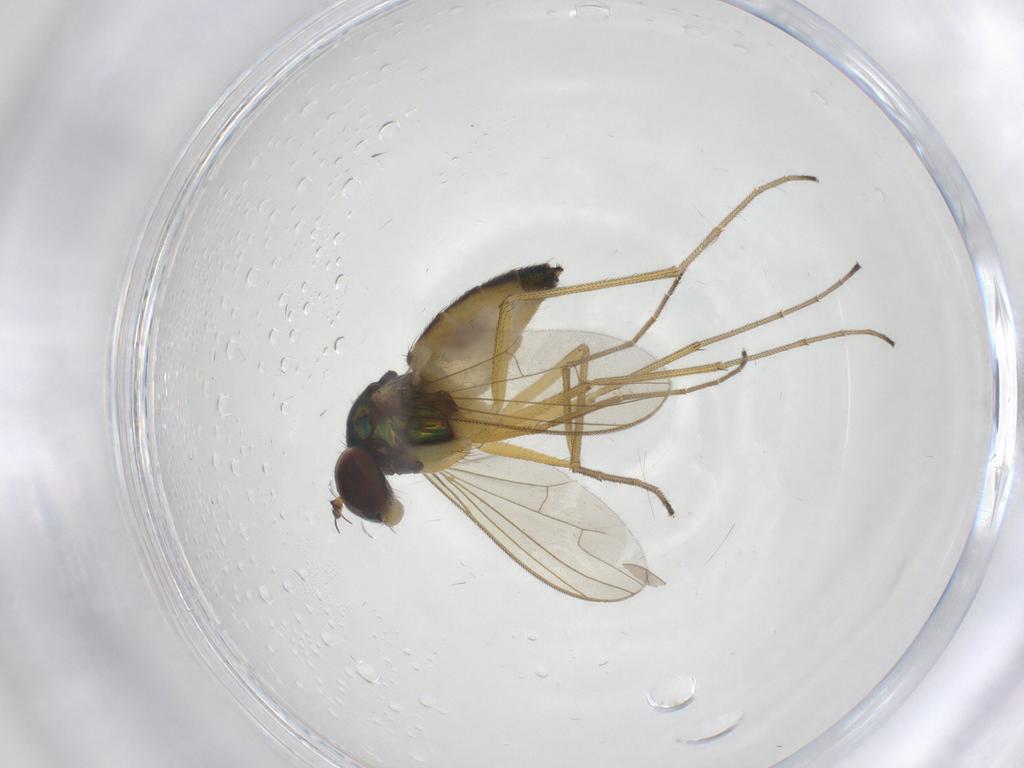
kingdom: Animalia
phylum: Arthropoda
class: Insecta
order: Diptera
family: Dolichopodidae
